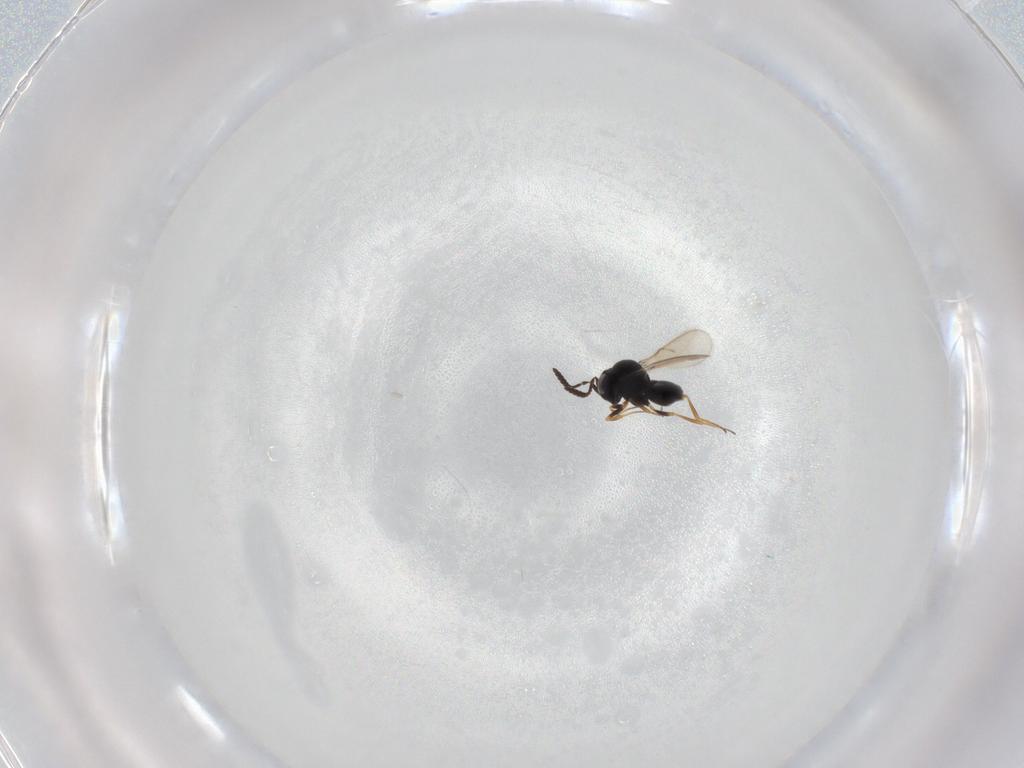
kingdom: Animalia
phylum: Arthropoda
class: Insecta
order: Hymenoptera
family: Scelionidae
